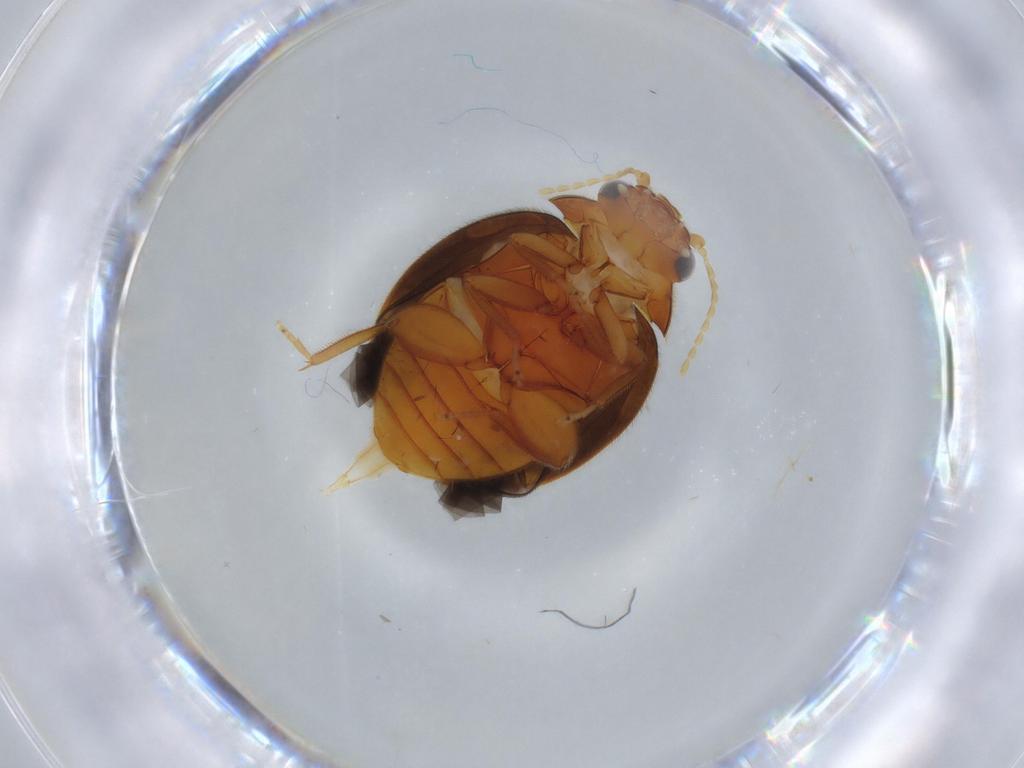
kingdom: Animalia
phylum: Arthropoda
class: Insecta
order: Coleoptera
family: Scirtidae
